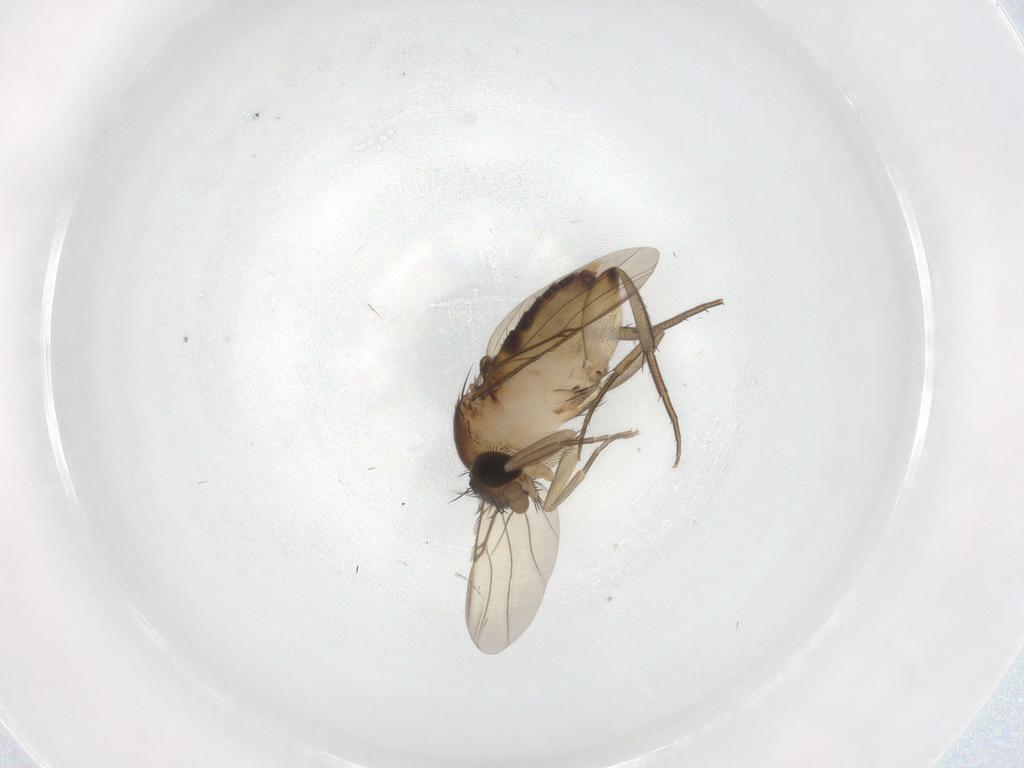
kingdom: Animalia
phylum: Arthropoda
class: Insecta
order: Diptera
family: Phoridae
